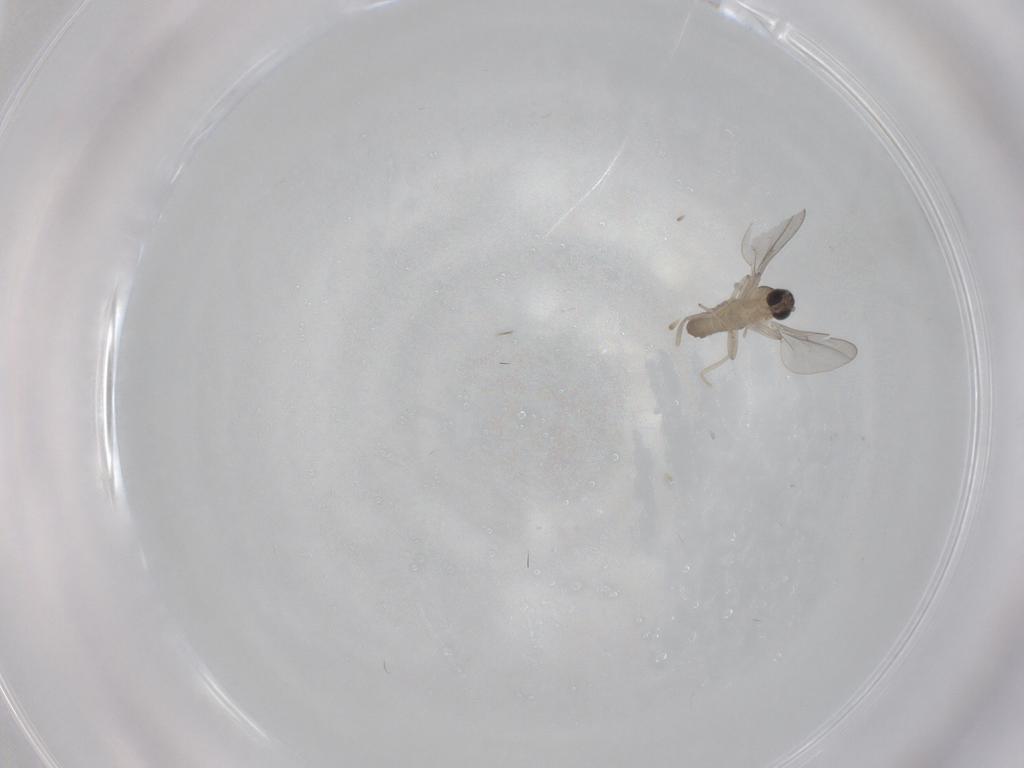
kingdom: Animalia
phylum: Arthropoda
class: Insecta
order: Diptera
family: Cecidomyiidae
